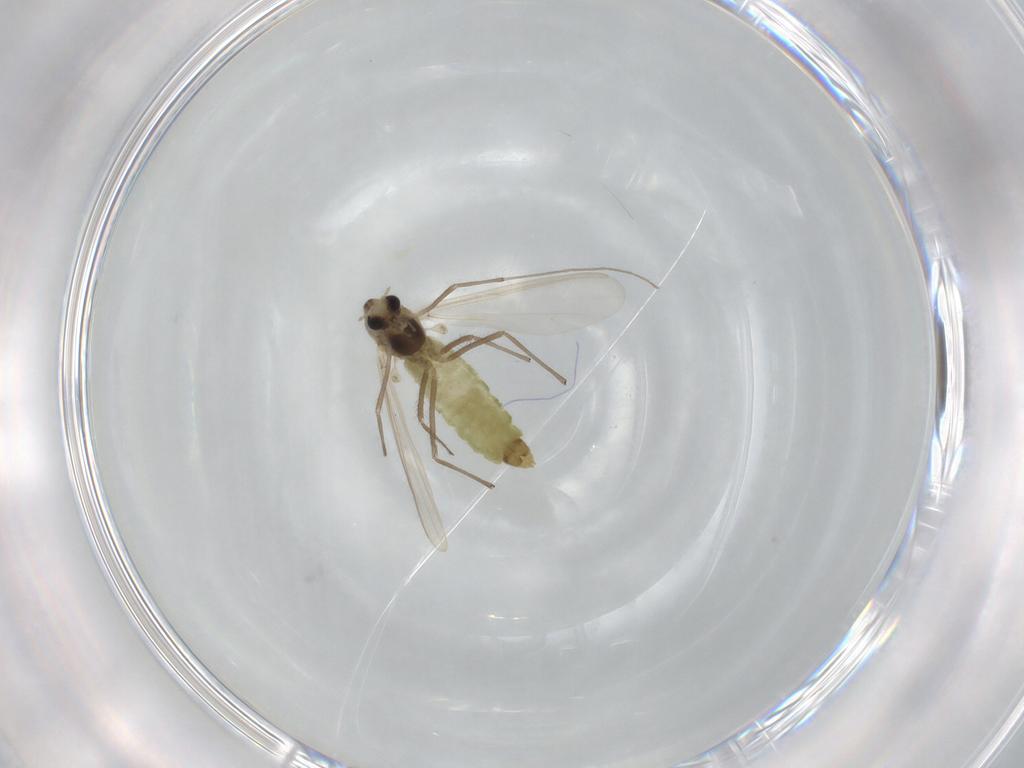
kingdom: Animalia
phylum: Arthropoda
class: Insecta
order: Diptera
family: Chironomidae
